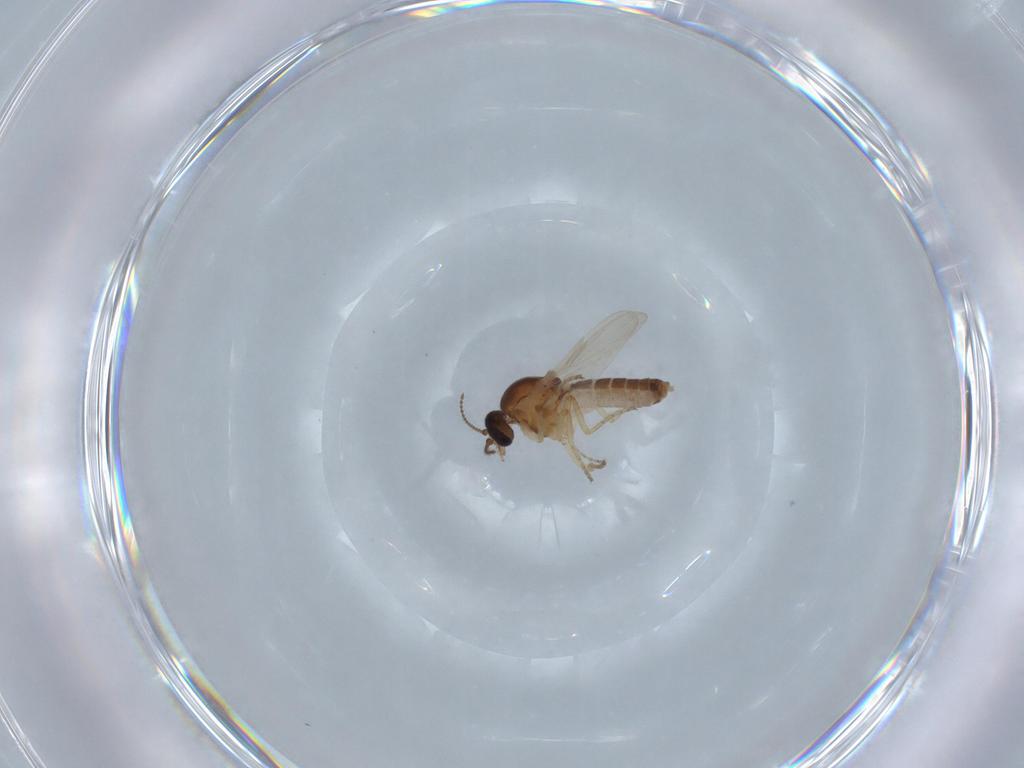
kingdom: Animalia
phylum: Arthropoda
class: Insecta
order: Diptera
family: Ceratopogonidae
